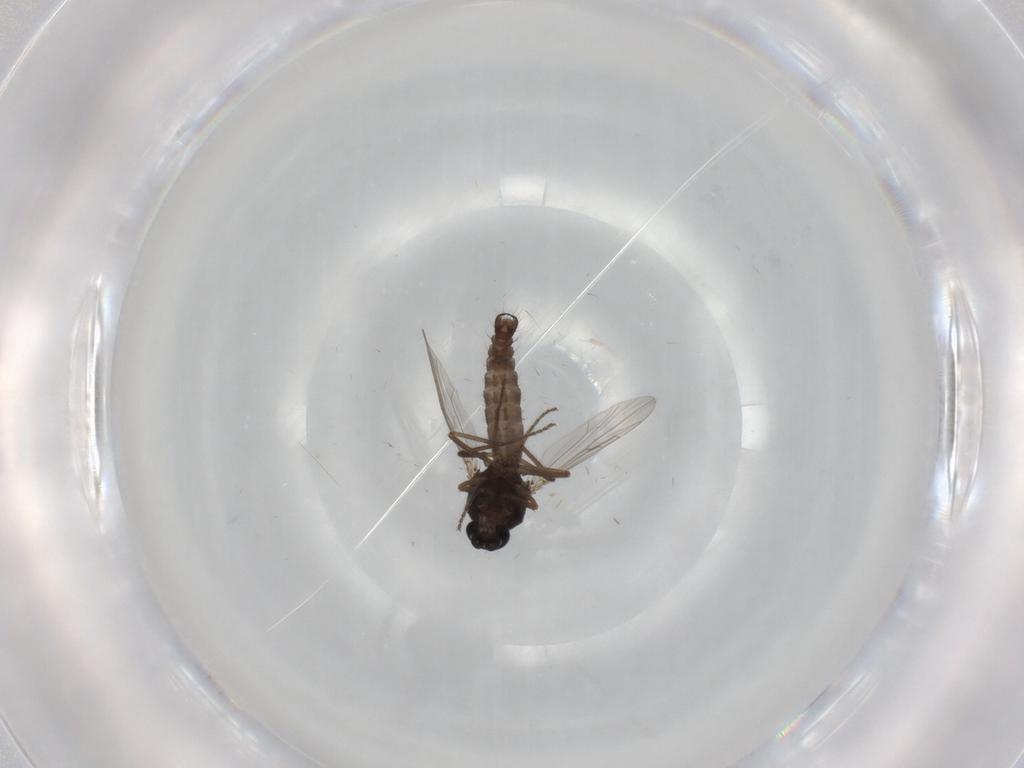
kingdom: Animalia
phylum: Arthropoda
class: Insecta
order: Diptera
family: Ceratopogonidae
